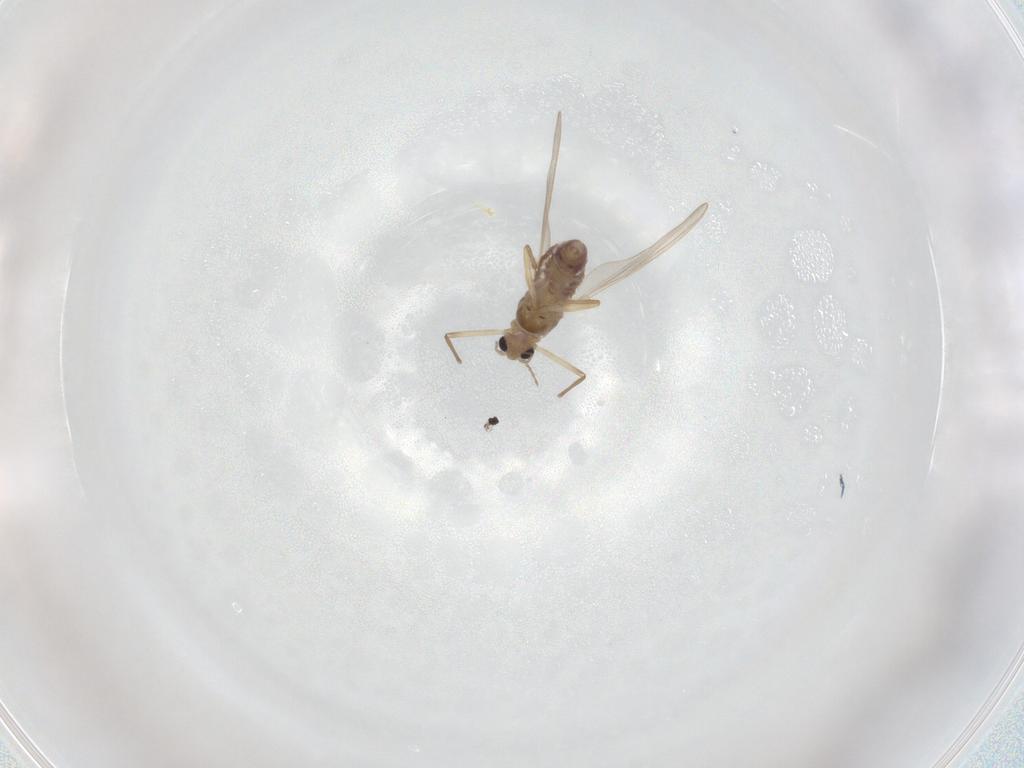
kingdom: Animalia
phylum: Arthropoda
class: Insecta
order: Diptera
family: Chironomidae
